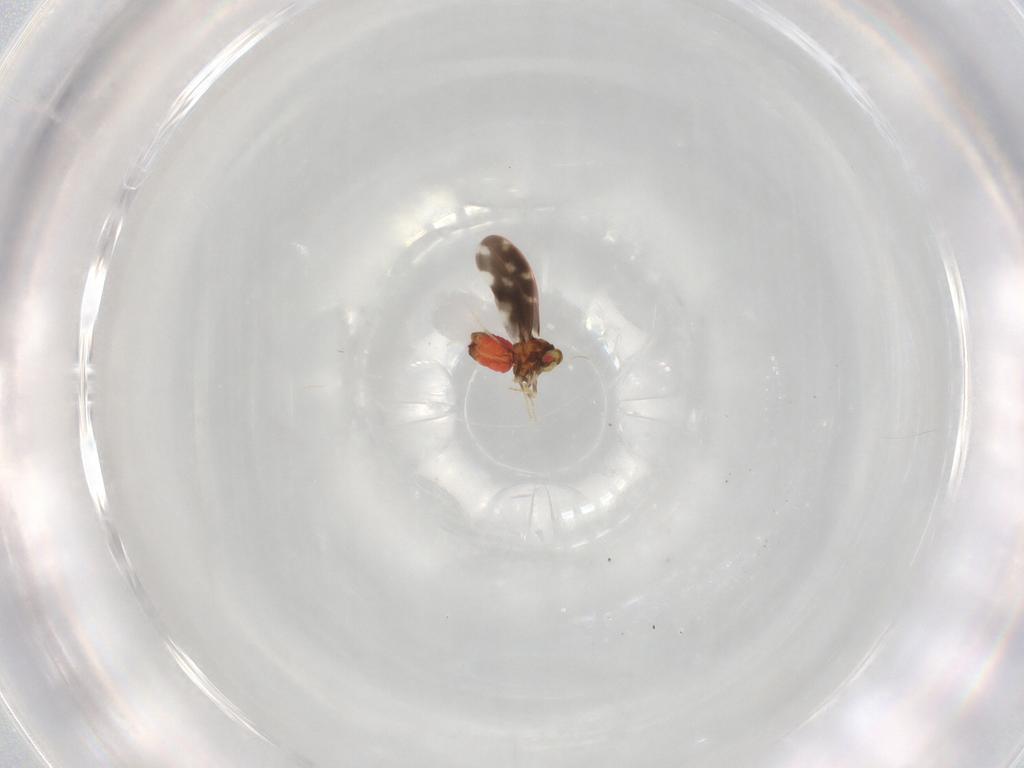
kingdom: Animalia
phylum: Arthropoda
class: Insecta
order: Hemiptera
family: Aleyrodidae
